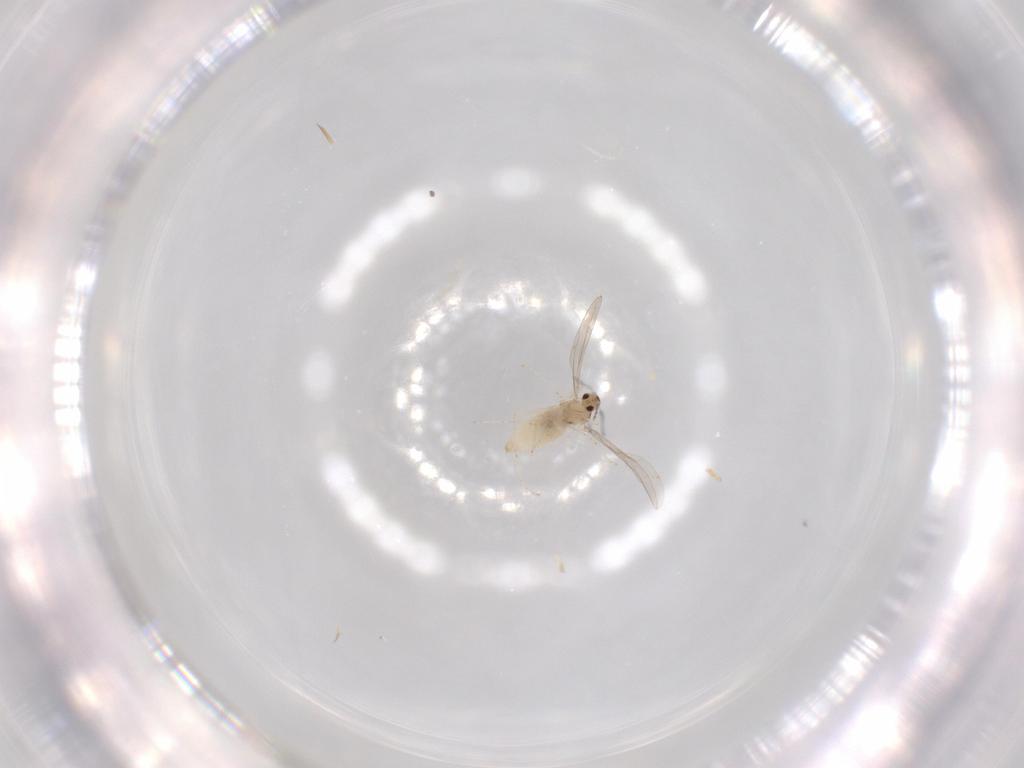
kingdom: Animalia
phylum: Arthropoda
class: Insecta
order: Diptera
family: Cecidomyiidae
